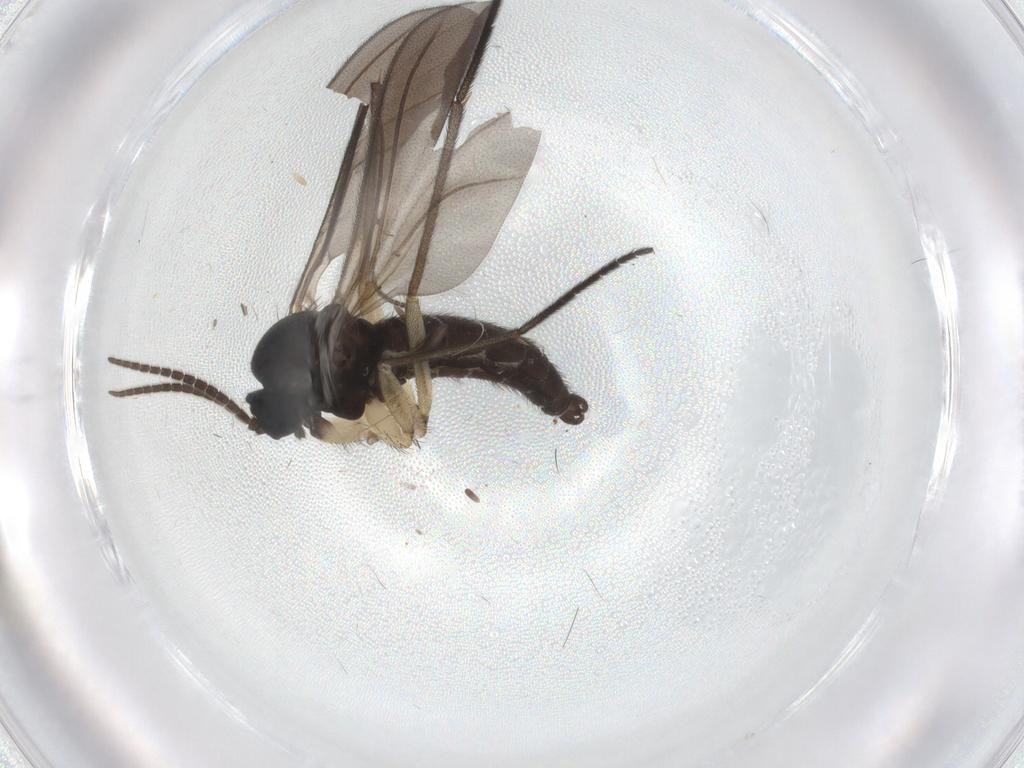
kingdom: Animalia
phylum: Arthropoda
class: Insecta
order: Diptera
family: Sciaridae
